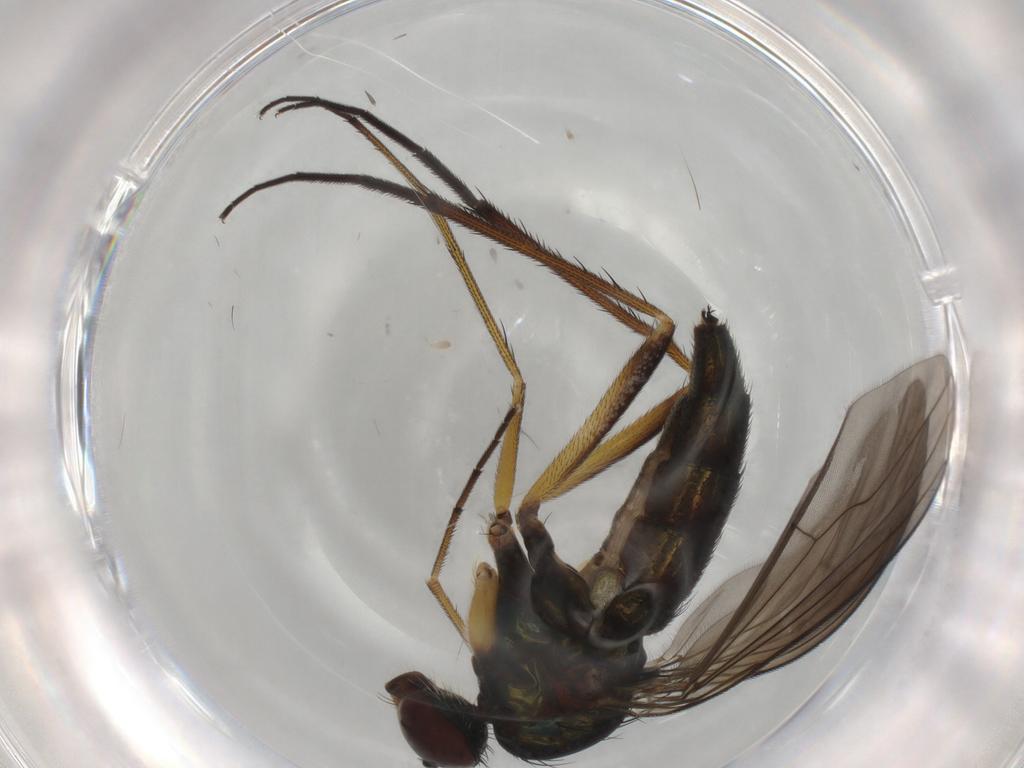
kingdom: Animalia
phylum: Arthropoda
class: Insecta
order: Diptera
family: Dolichopodidae
